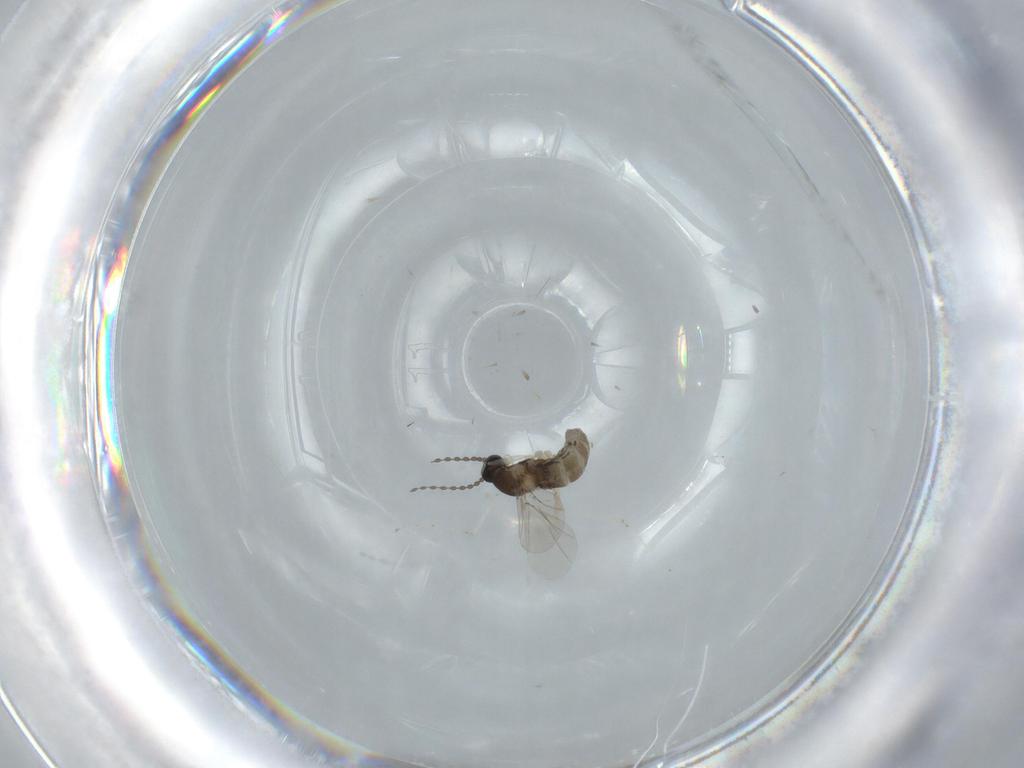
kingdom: Animalia
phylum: Arthropoda
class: Insecta
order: Diptera
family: Cecidomyiidae
